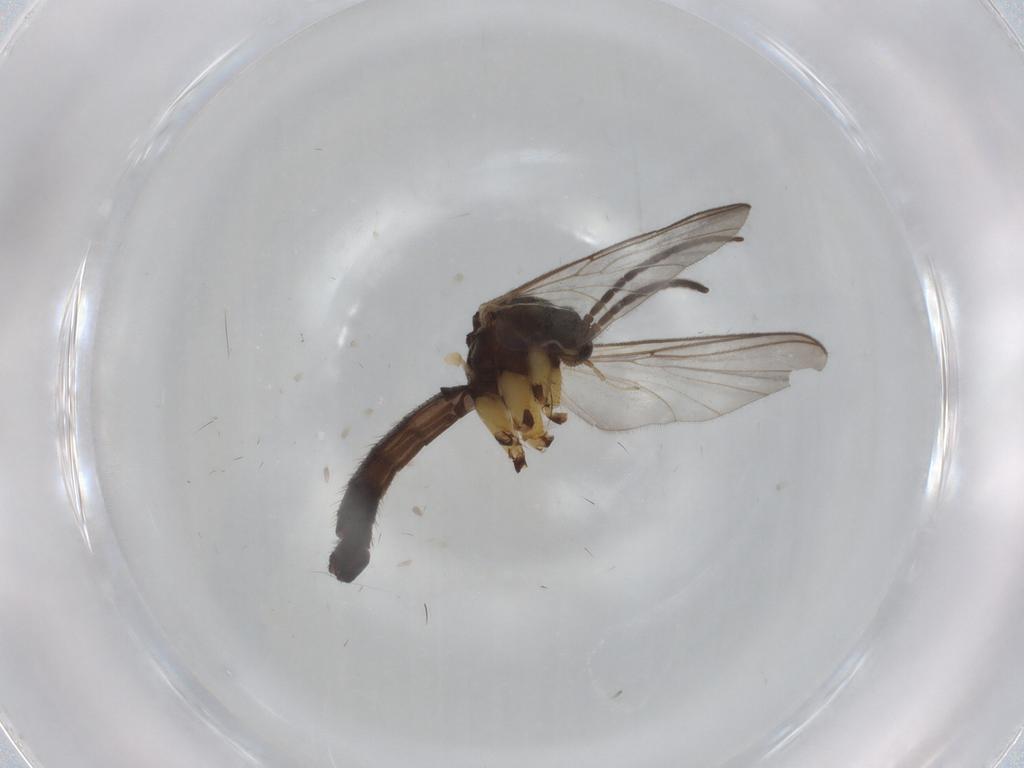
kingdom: Animalia
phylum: Arthropoda
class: Insecta
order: Diptera
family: Mycetophilidae
